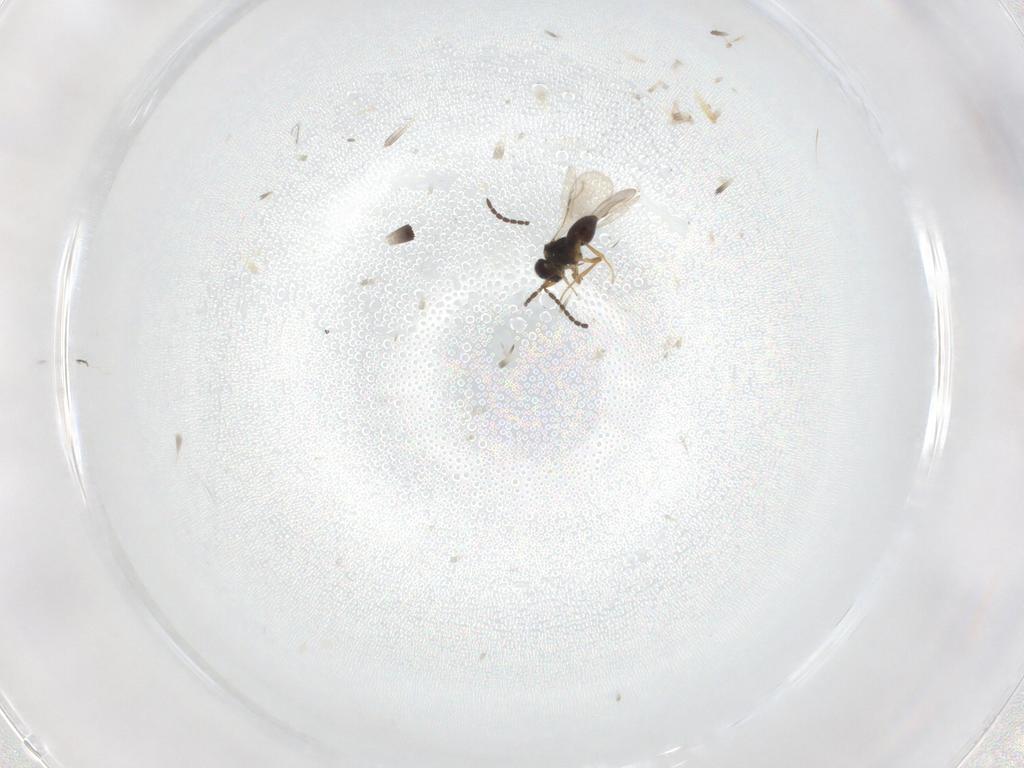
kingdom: Animalia
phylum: Arthropoda
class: Insecta
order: Hymenoptera
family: Ceraphronidae
